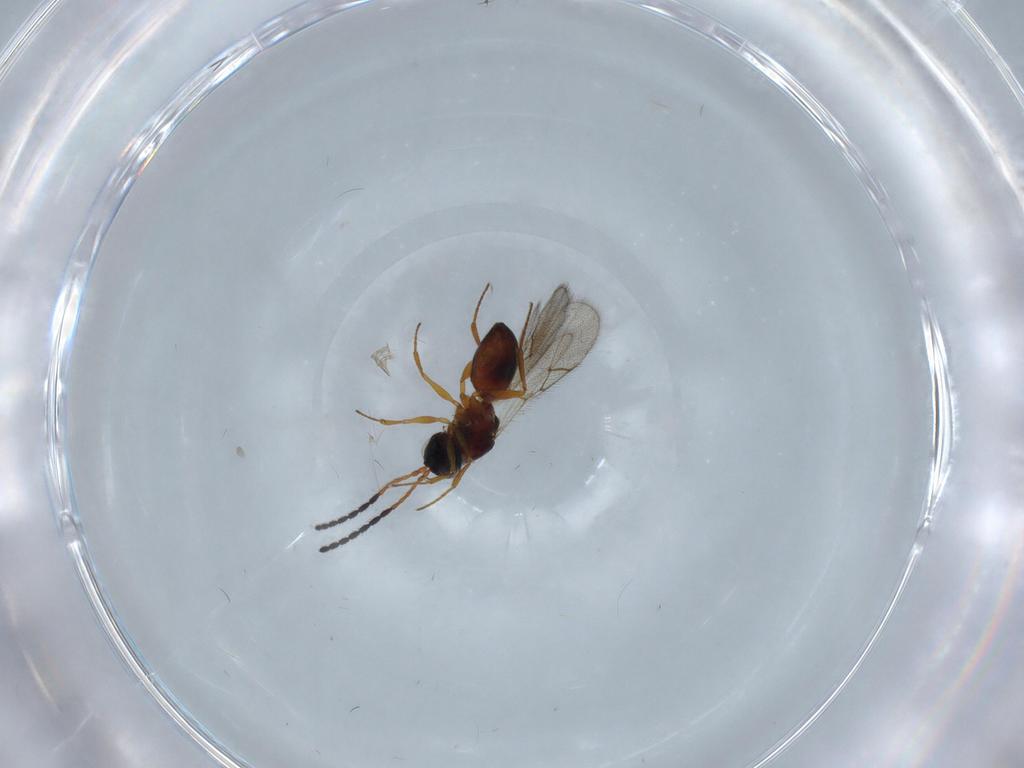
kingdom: Animalia
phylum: Arthropoda
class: Insecta
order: Hymenoptera
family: Figitidae
